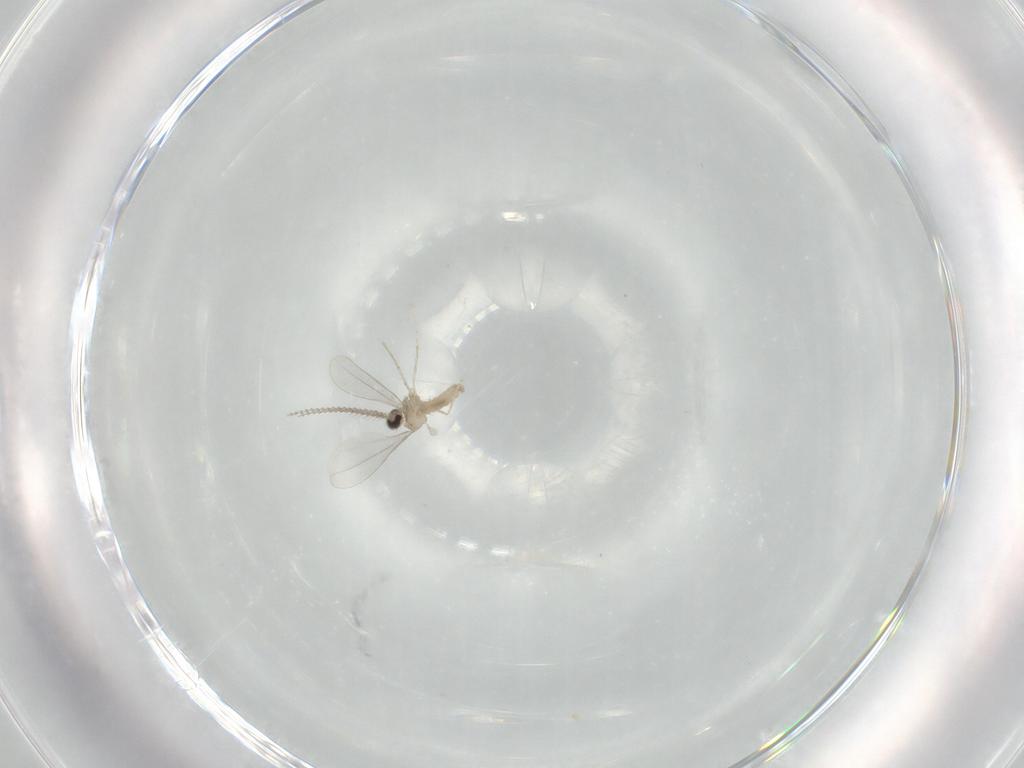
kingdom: Animalia
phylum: Arthropoda
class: Insecta
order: Diptera
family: Cecidomyiidae
